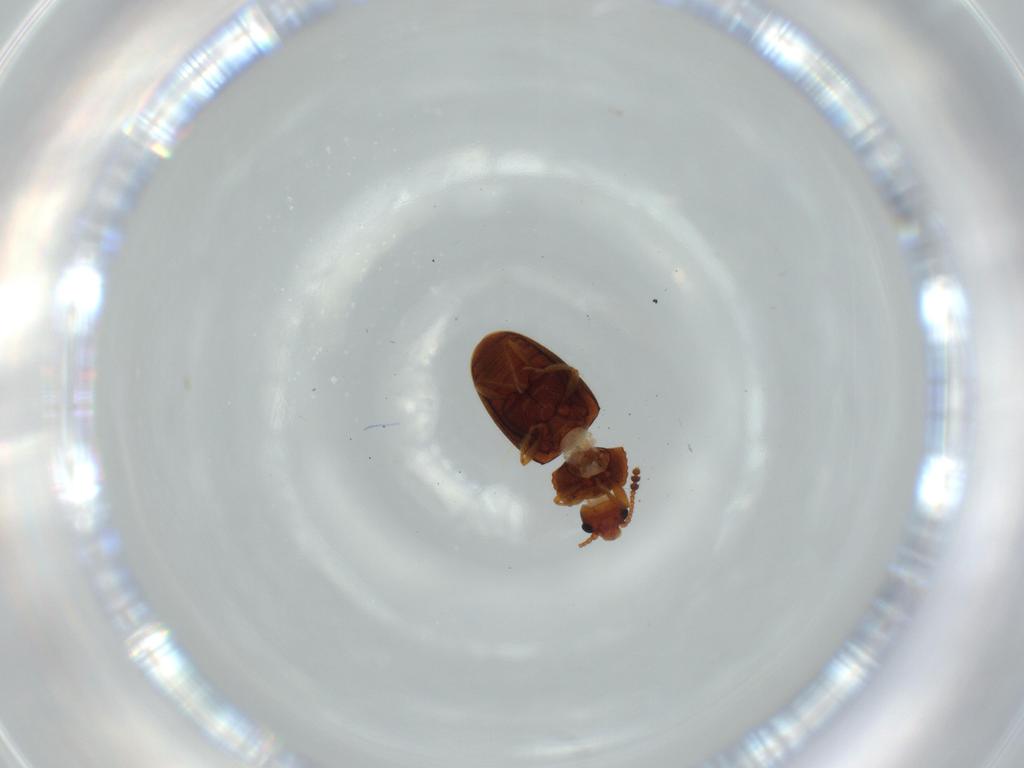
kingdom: Animalia
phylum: Arthropoda
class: Insecta
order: Coleoptera
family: Erotylidae
